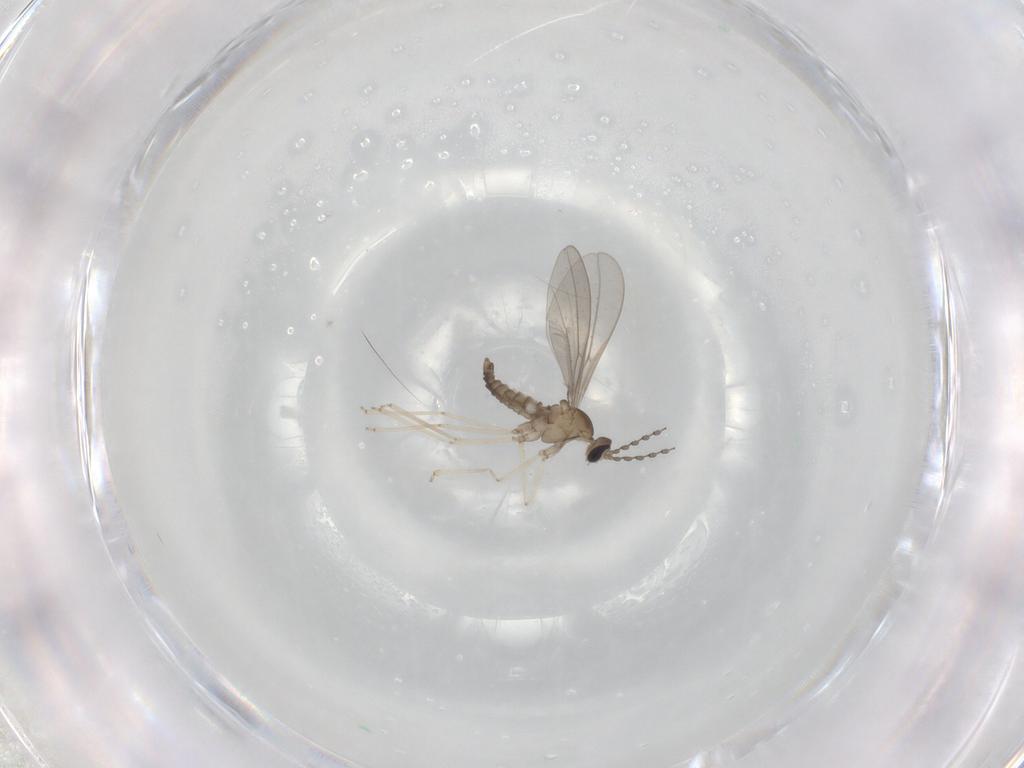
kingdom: Animalia
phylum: Arthropoda
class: Insecta
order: Diptera
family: Cecidomyiidae
